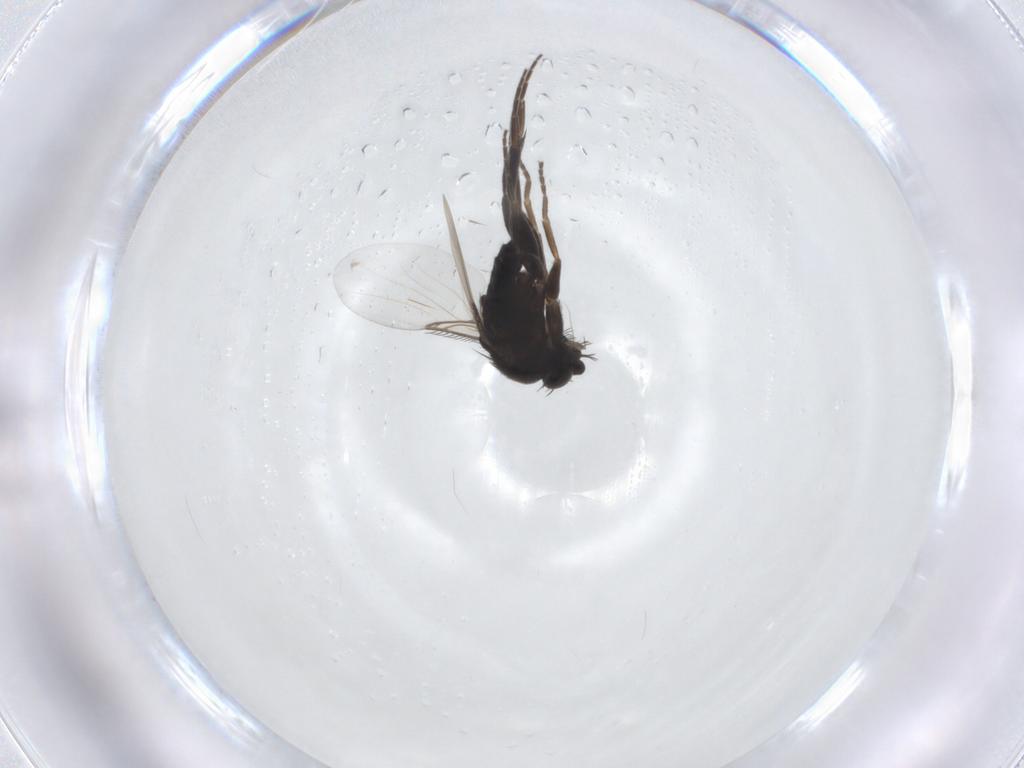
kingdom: Animalia
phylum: Arthropoda
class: Insecta
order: Diptera
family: Phoridae
